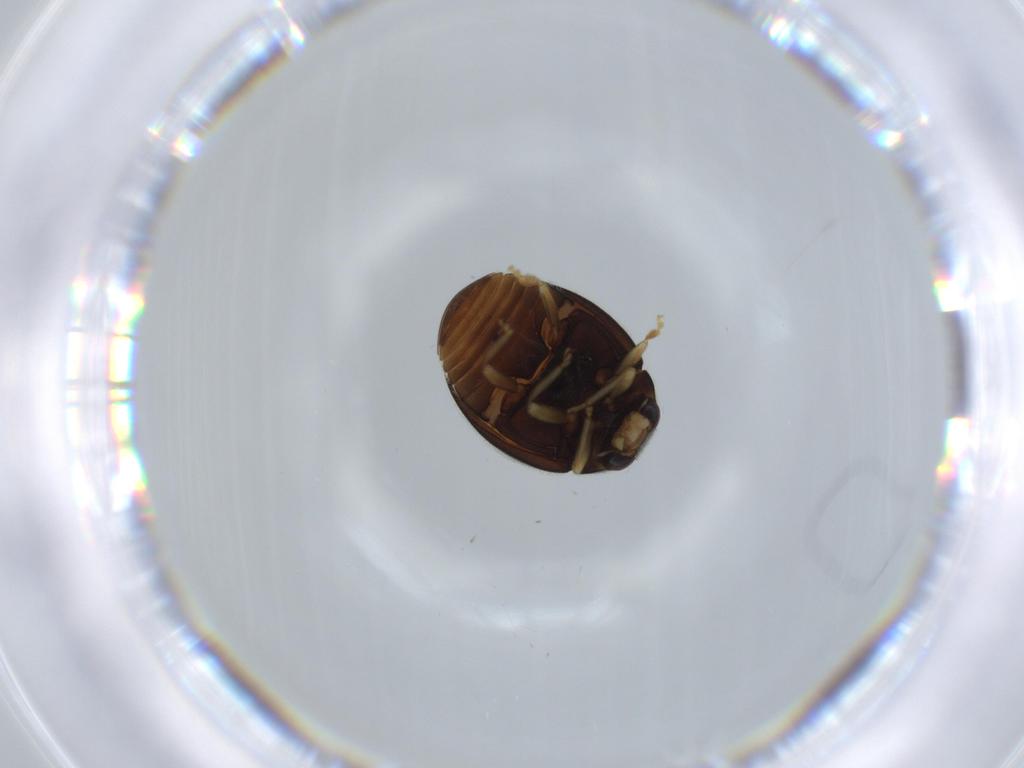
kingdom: Animalia
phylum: Arthropoda
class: Insecta
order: Coleoptera
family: Coccinellidae
